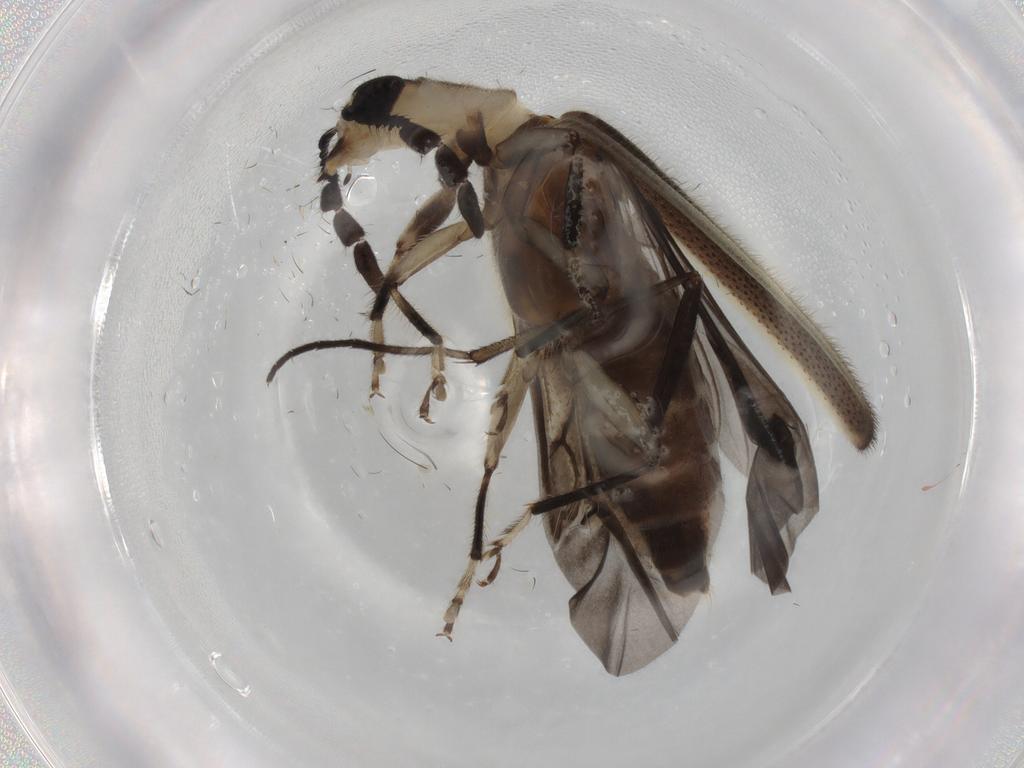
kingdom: Animalia
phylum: Arthropoda
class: Insecta
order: Coleoptera
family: Cleridae
